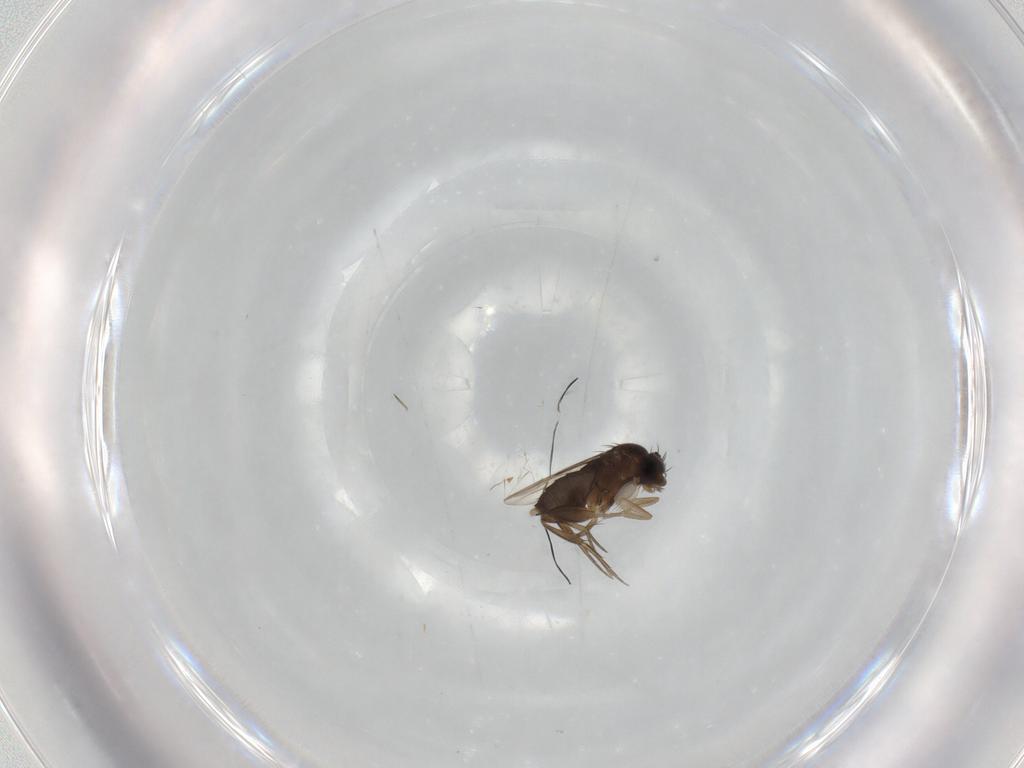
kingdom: Animalia
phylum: Arthropoda
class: Insecta
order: Diptera
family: Phoridae
